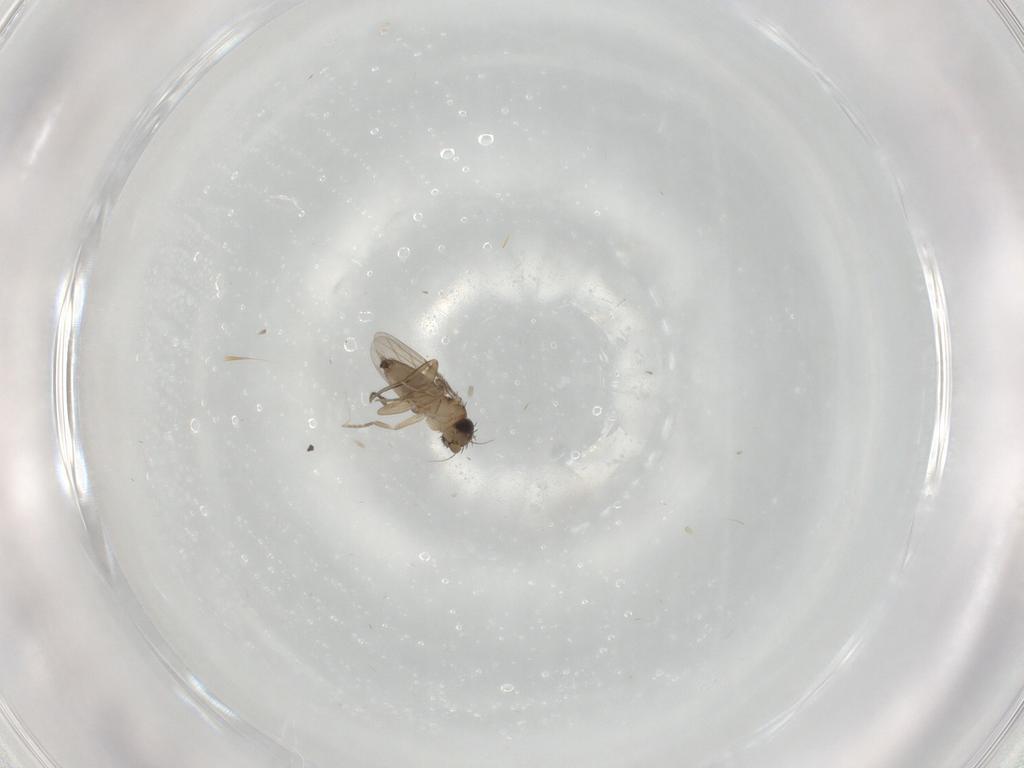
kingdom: Animalia
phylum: Arthropoda
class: Insecta
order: Diptera
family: Phoridae
